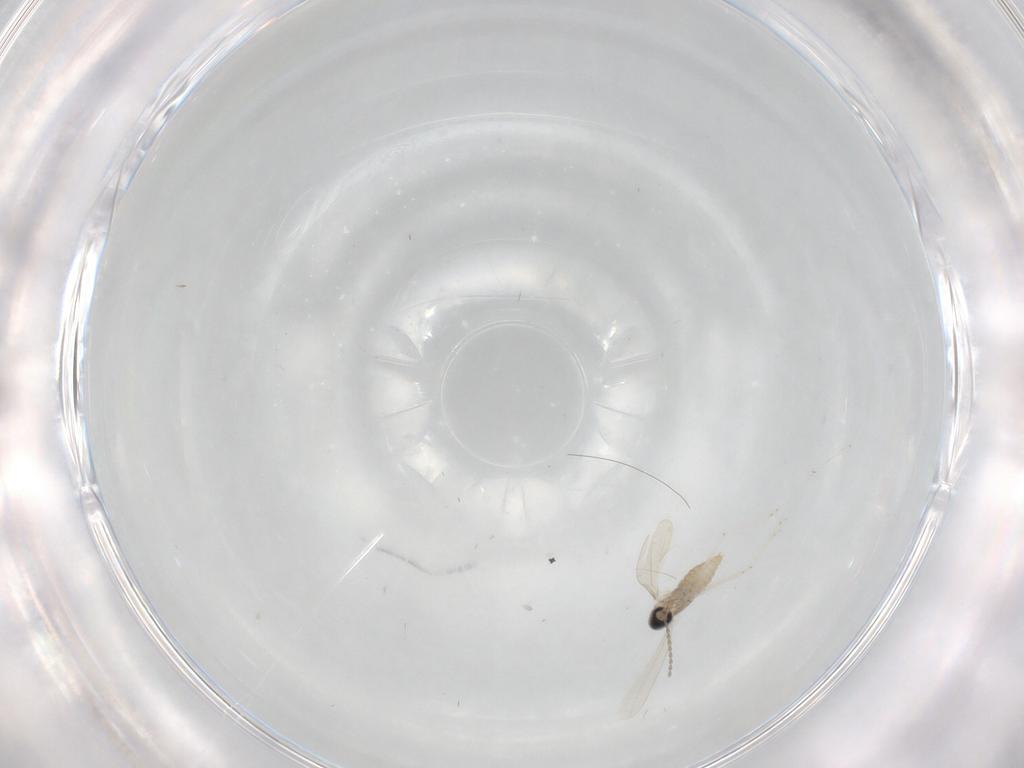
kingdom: Animalia
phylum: Arthropoda
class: Insecta
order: Diptera
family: Cecidomyiidae
